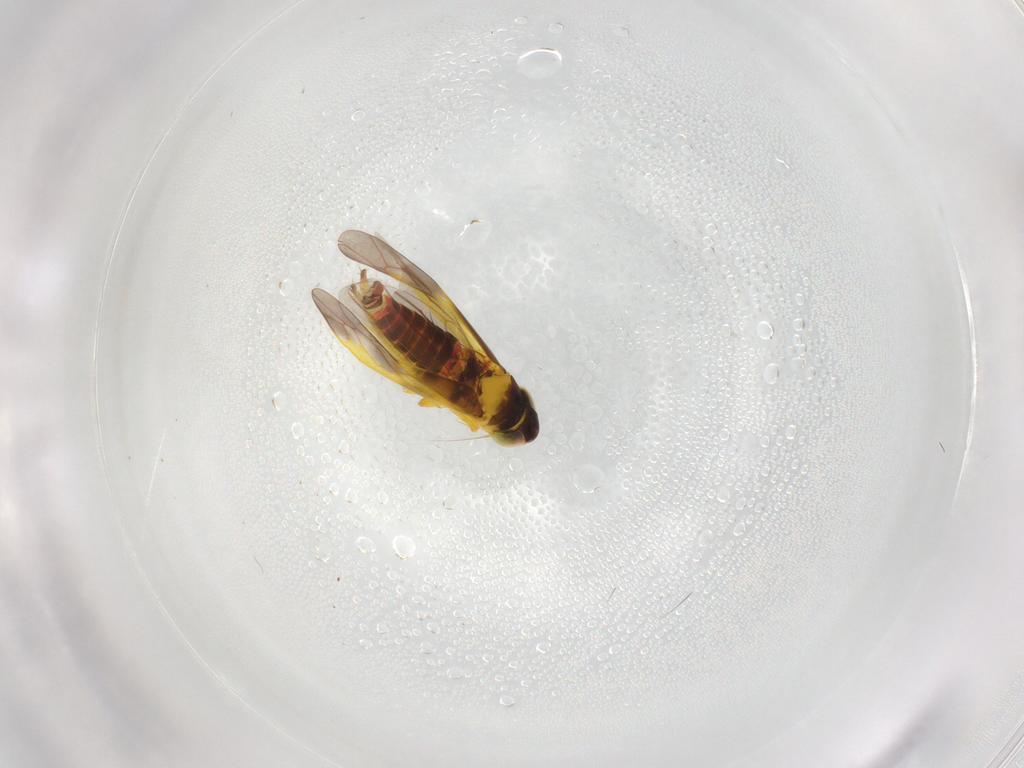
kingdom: Animalia
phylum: Arthropoda
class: Insecta
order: Hemiptera
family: Cicadellidae
